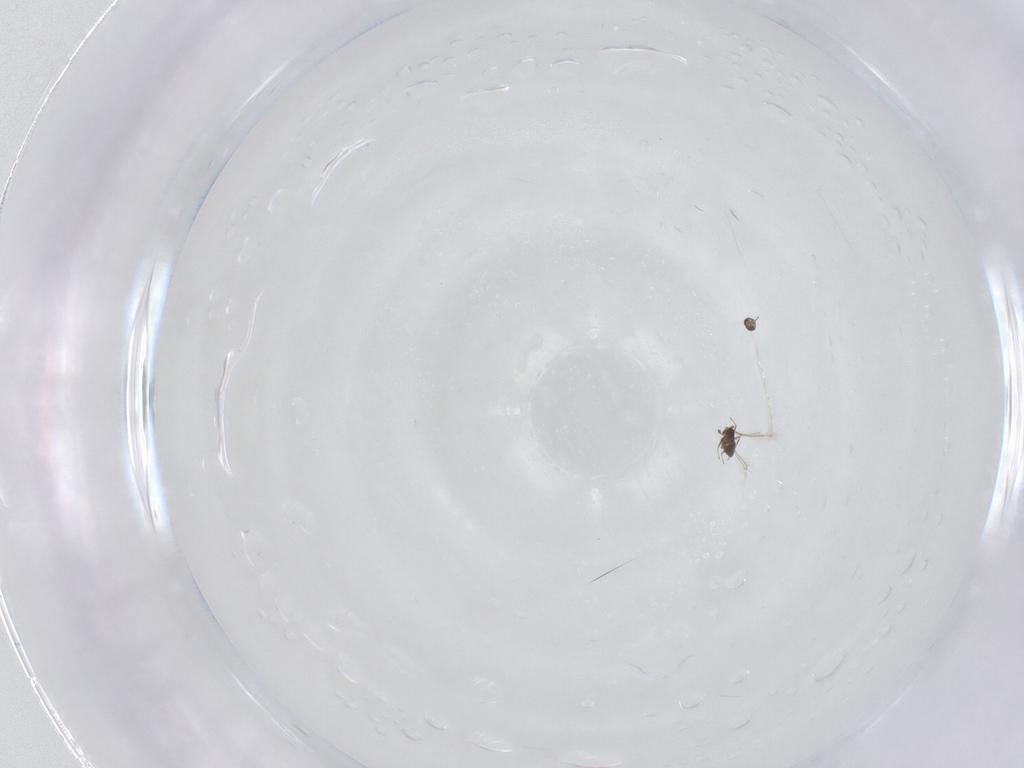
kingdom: Animalia
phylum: Arthropoda
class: Insecta
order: Hymenoptera
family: Mymaridae
